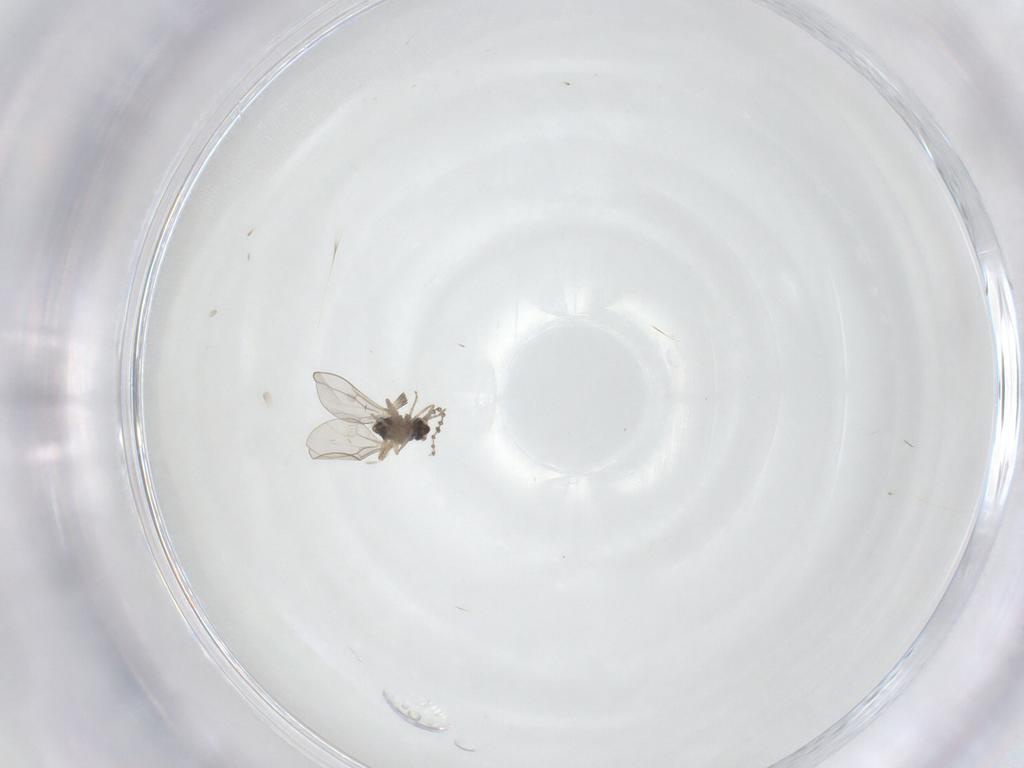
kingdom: Animalia
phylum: Arthropoda
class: Insecta
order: Diptera
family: Cecidomyiidae
